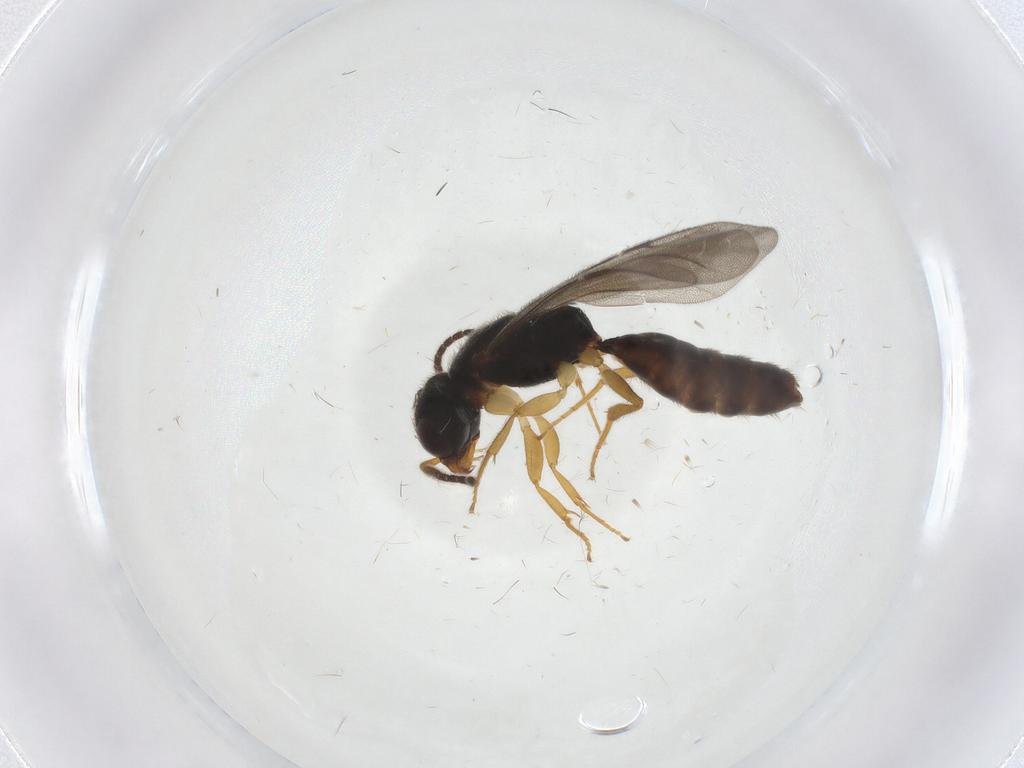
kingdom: Animalia
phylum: Arthropoda
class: Insecta
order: Hymenoptera
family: Bethylidae
